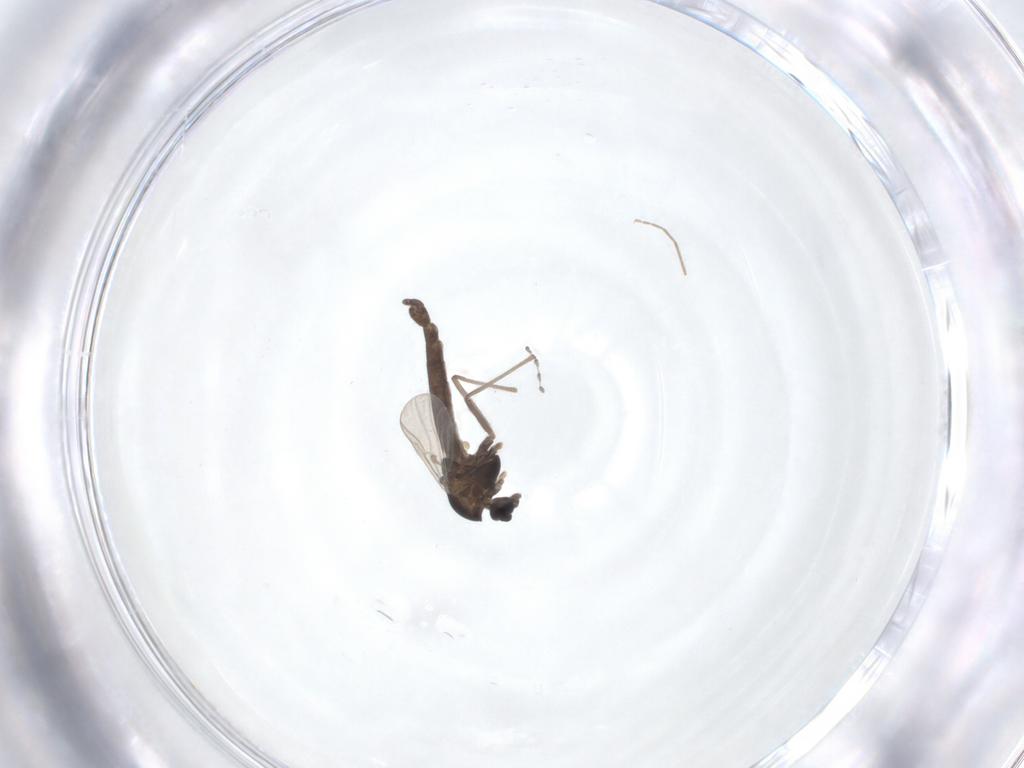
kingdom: Animalia
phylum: Arthropoda
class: Insecta
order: Diptera
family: Cecidomyiidae
